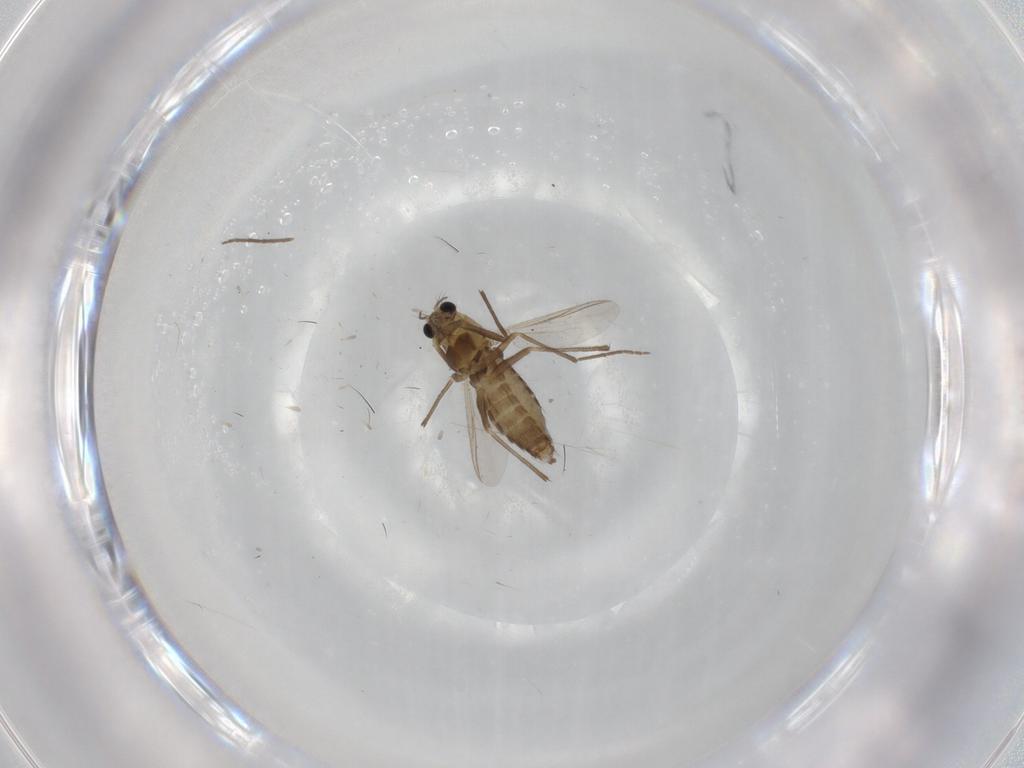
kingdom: Animalia
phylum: Arthropoda
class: Insecta
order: Diptera
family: Chironomidae
